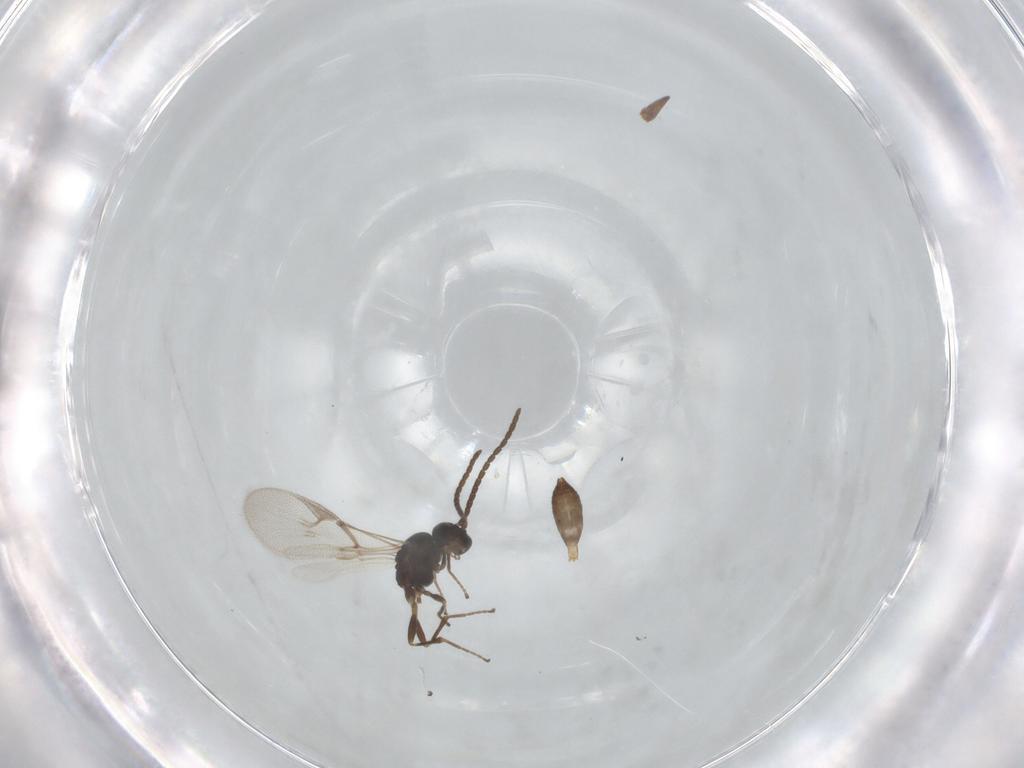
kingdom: Animalia
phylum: Arthropoda
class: Insecta
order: Hymenoptera
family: Braconidae
